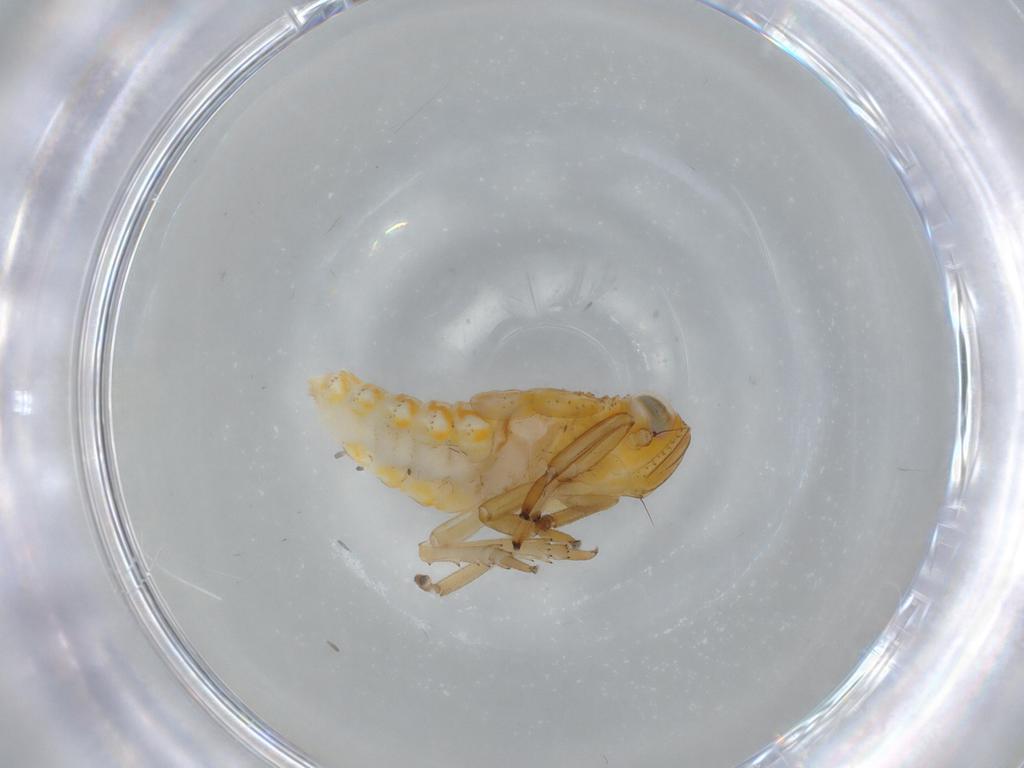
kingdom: Animalia
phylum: Arthropoda
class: Insecta
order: Hemiptera
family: Issidae
